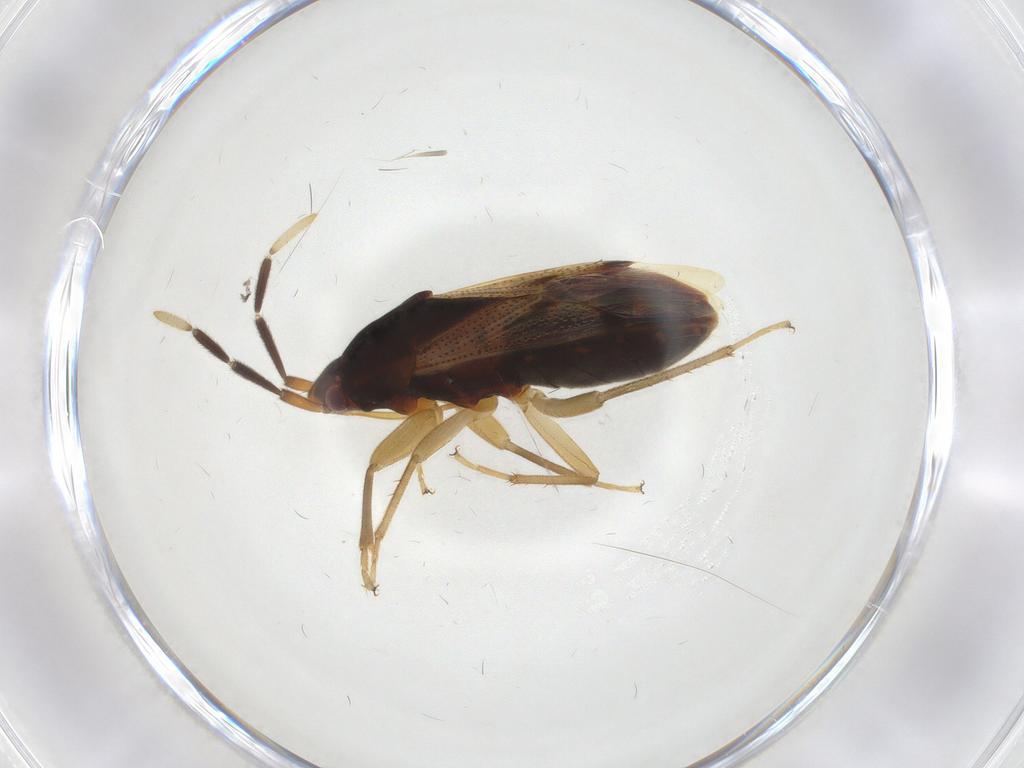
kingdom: Animalia
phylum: Arthropoda
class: Insecta
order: Hemiptera
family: Rhyparochromidae
